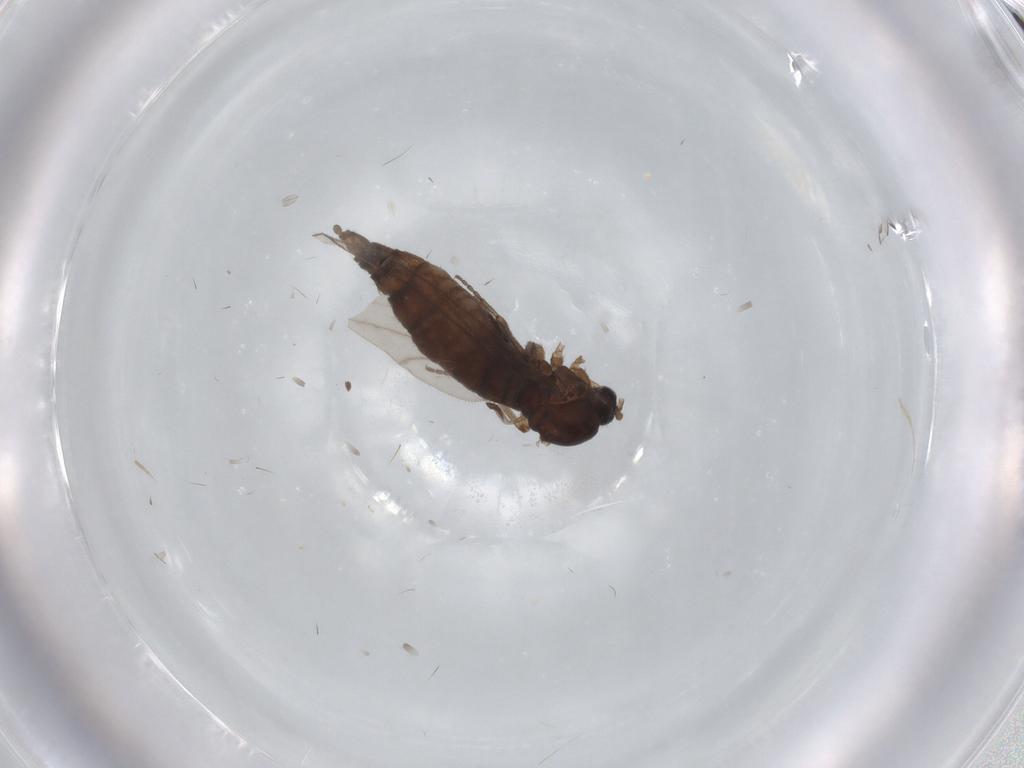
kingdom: Animalia
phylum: Arthropoda
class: Insecta
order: Diptera
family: Sciaridae
